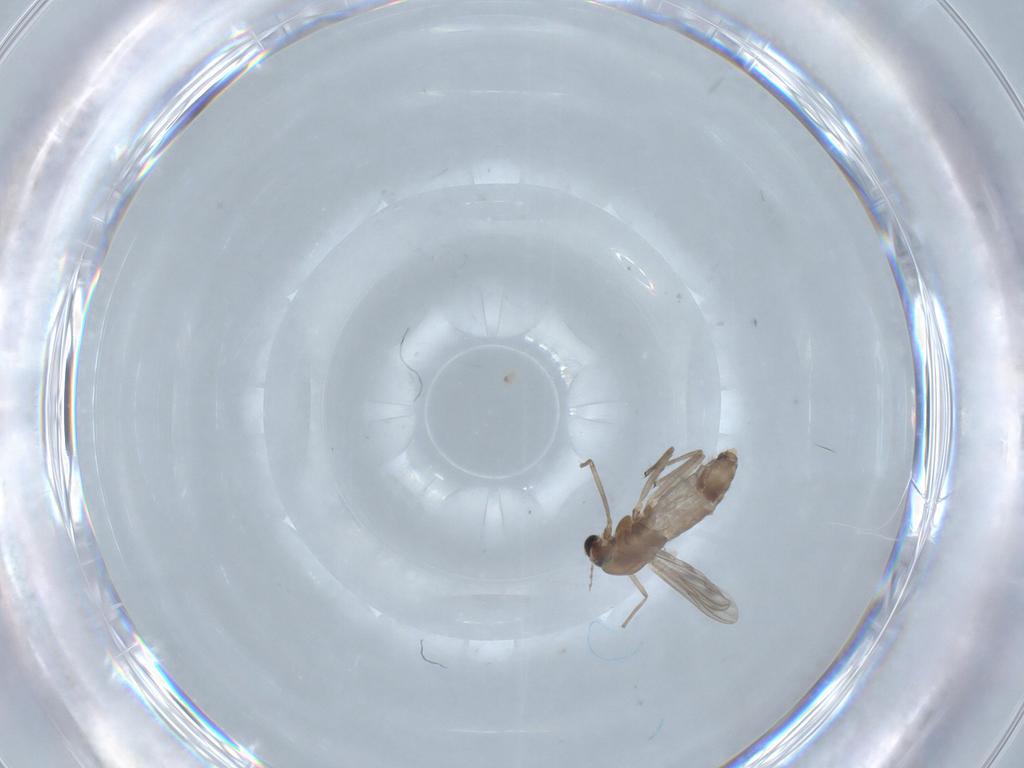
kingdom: Animalia
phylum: Arthropoda
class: Insecta
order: Diptera
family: Chironomidae
